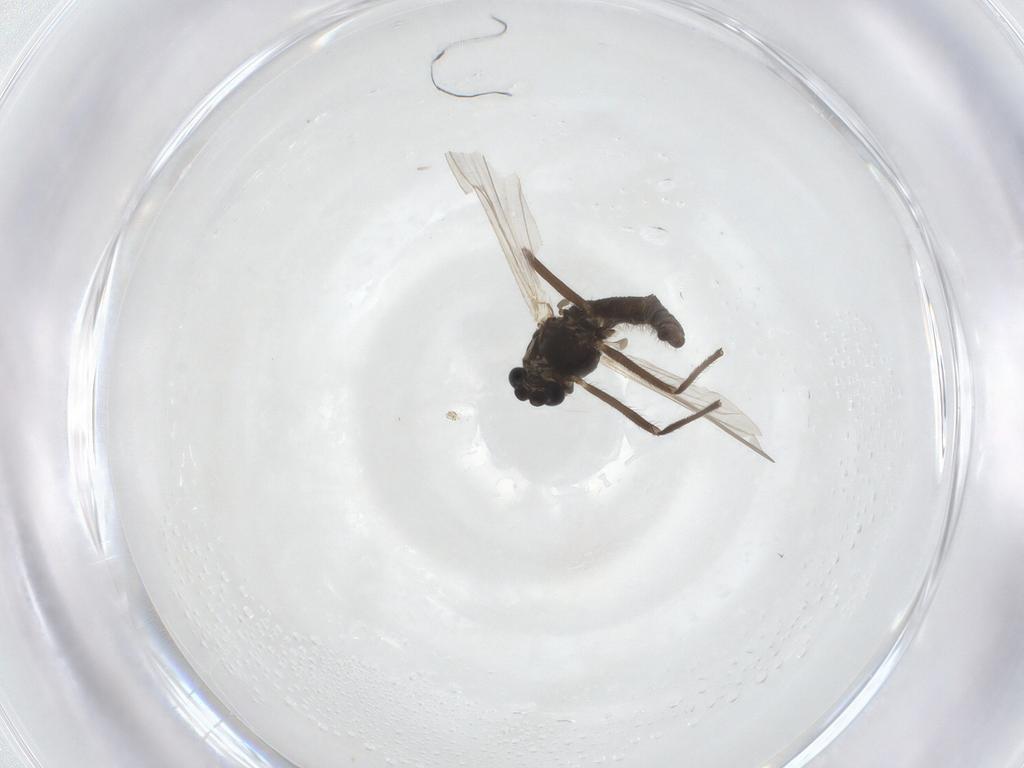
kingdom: Animalia
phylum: Arthropoda
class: Insecta
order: Diptera
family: Chironomidae
